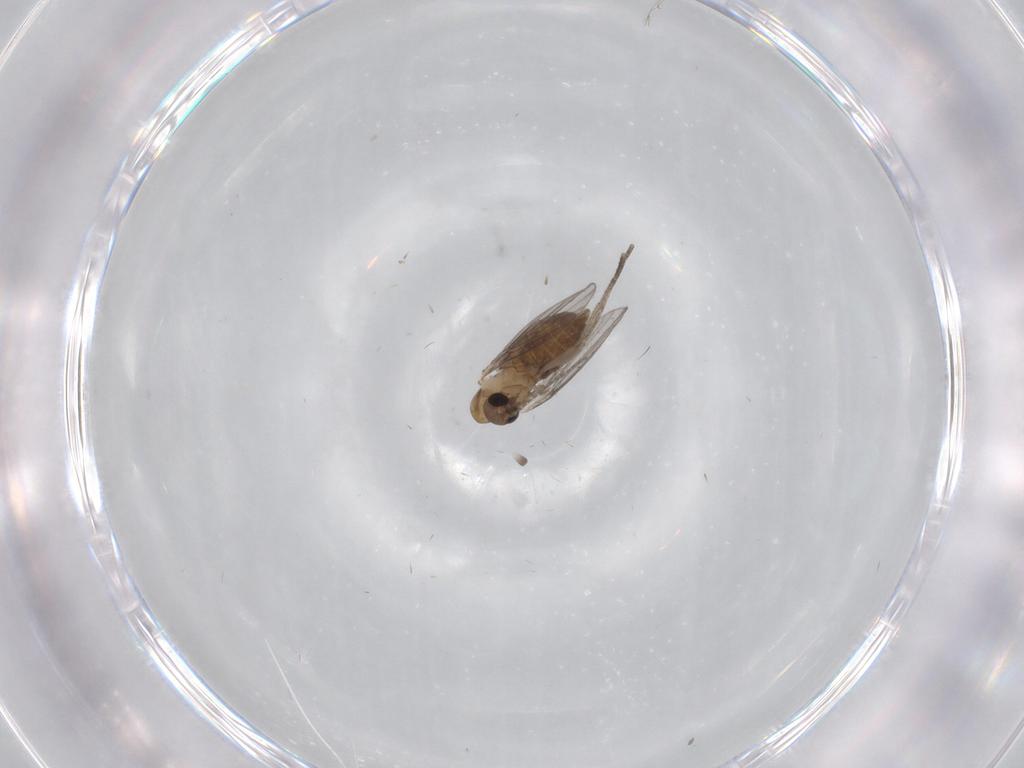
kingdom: Animalia
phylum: Arthropoda
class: Insecta
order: Diptera
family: Psychodidae
